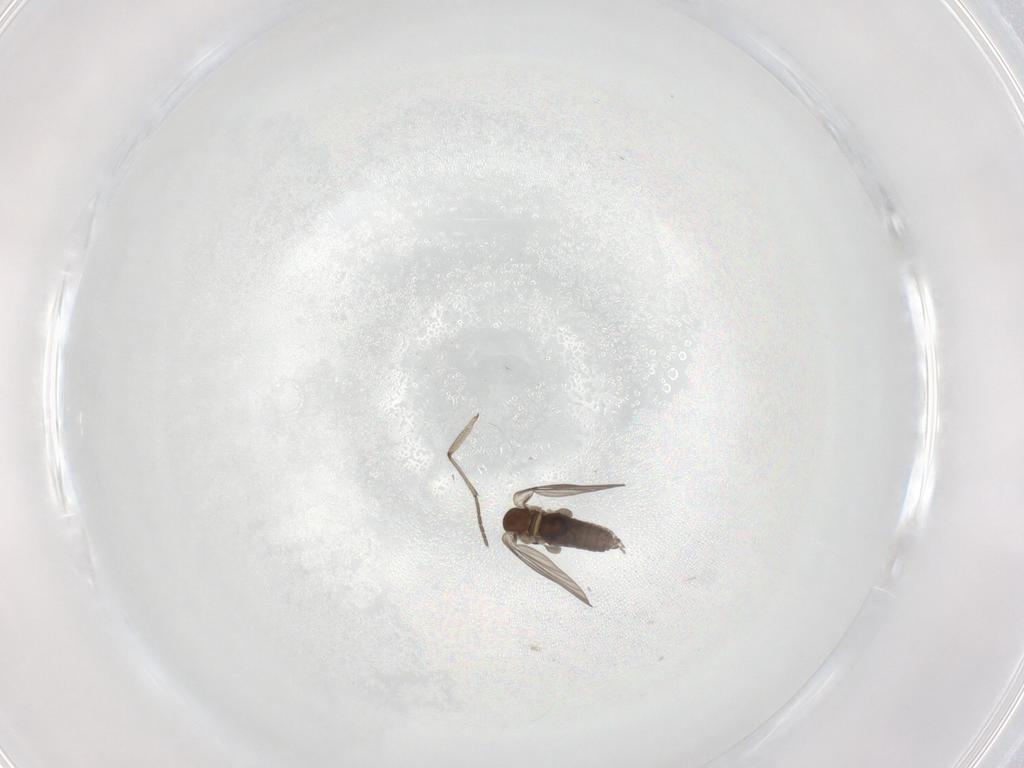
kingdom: Animalia
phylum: Arthropoda
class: Insecta
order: Diptera
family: Sciaridae
